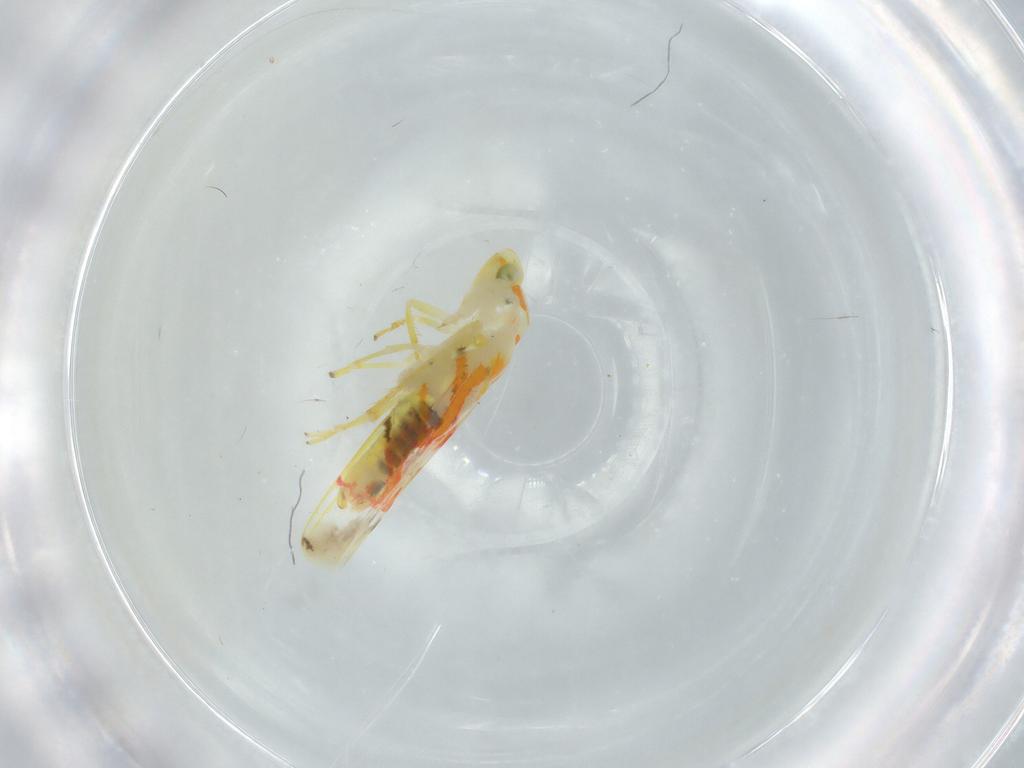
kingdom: Animalia
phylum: Arthropoda
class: Insecta
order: Hemiptera
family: Cicadellidae
